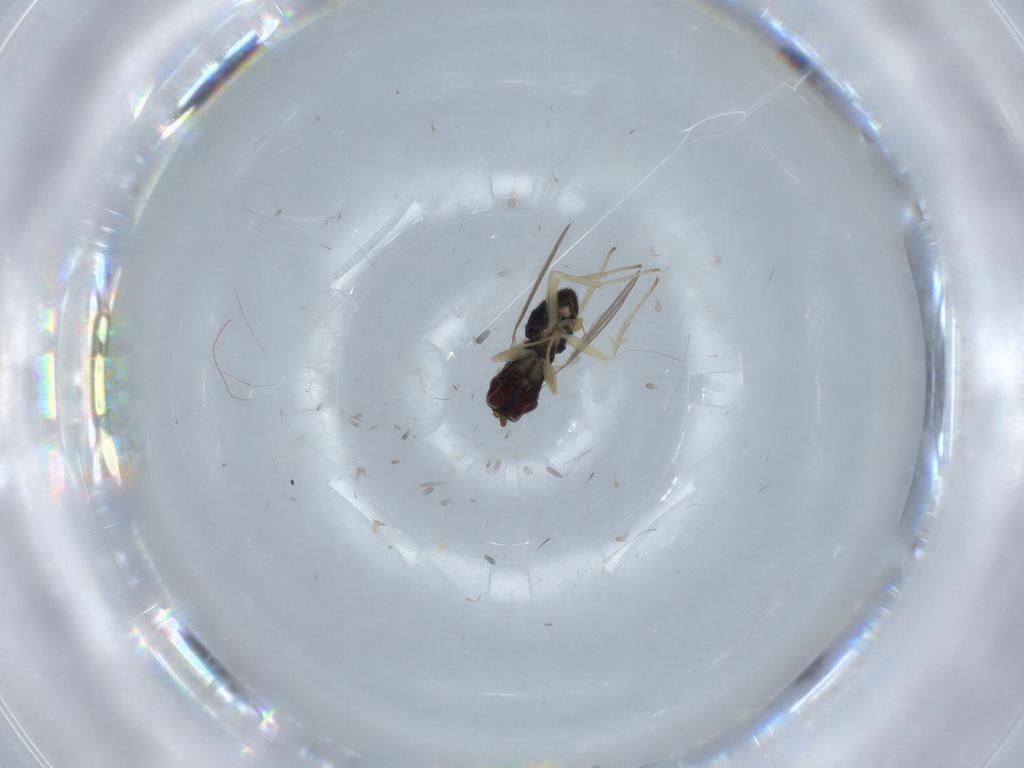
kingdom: Animalia
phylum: Arthropoda
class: Insecta
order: Diptera
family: Dolichopodidae
